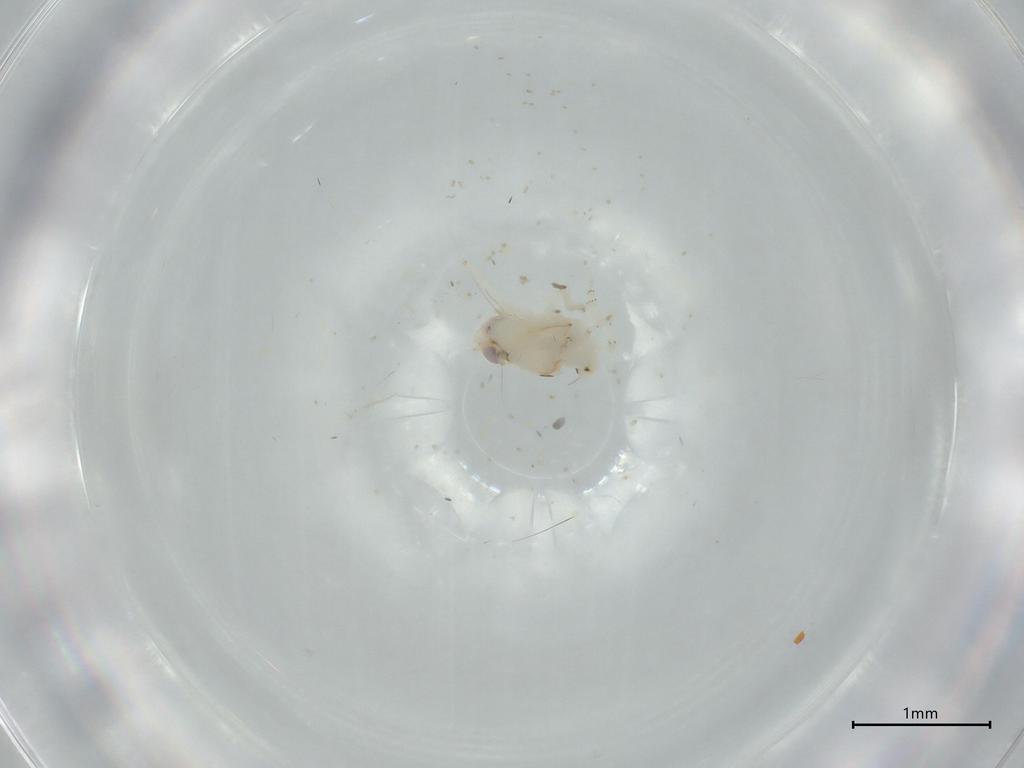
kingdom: Animalia
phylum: Arthropoda
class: Insecta
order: Hemiptera
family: Nogodinidae
